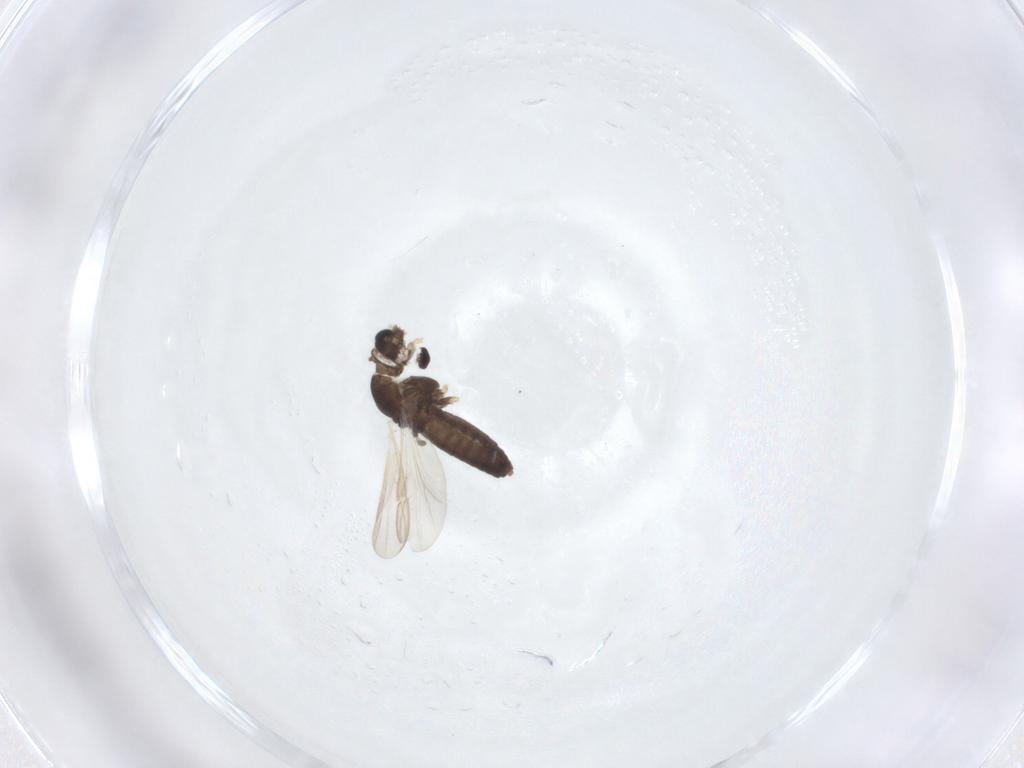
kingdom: Animalia
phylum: Arthropoda
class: Insecta
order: Diptera
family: Chironomidae
